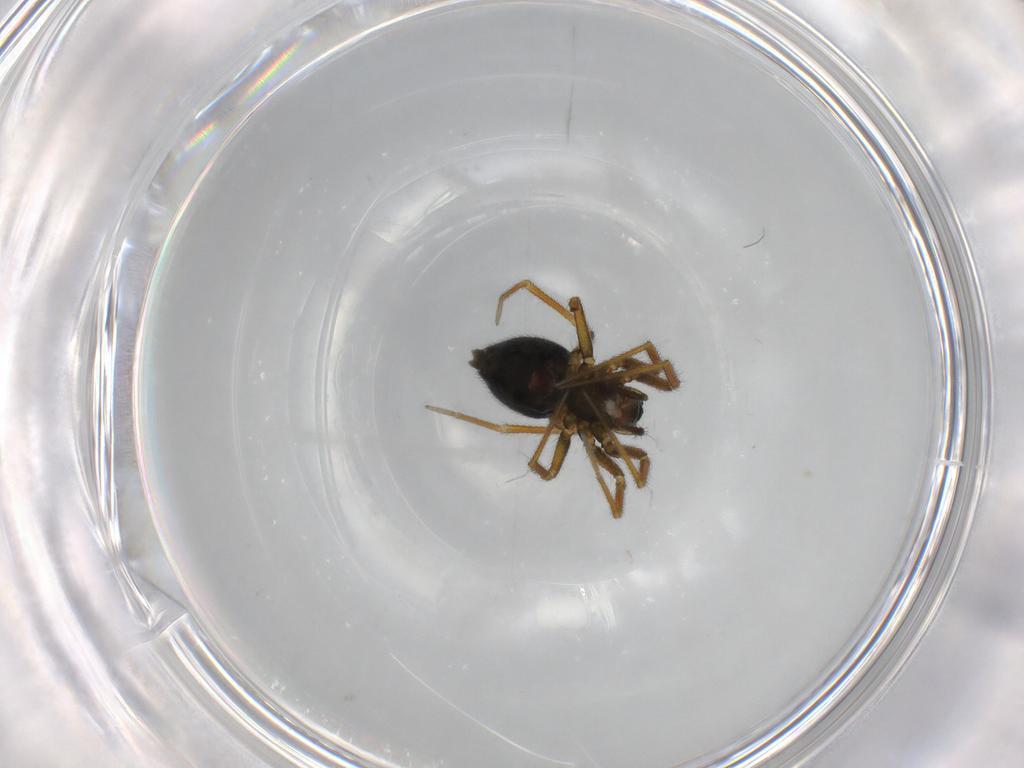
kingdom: Animalia
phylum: Arthropoda
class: Arachnida
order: Araneae
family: Linyphiidae
